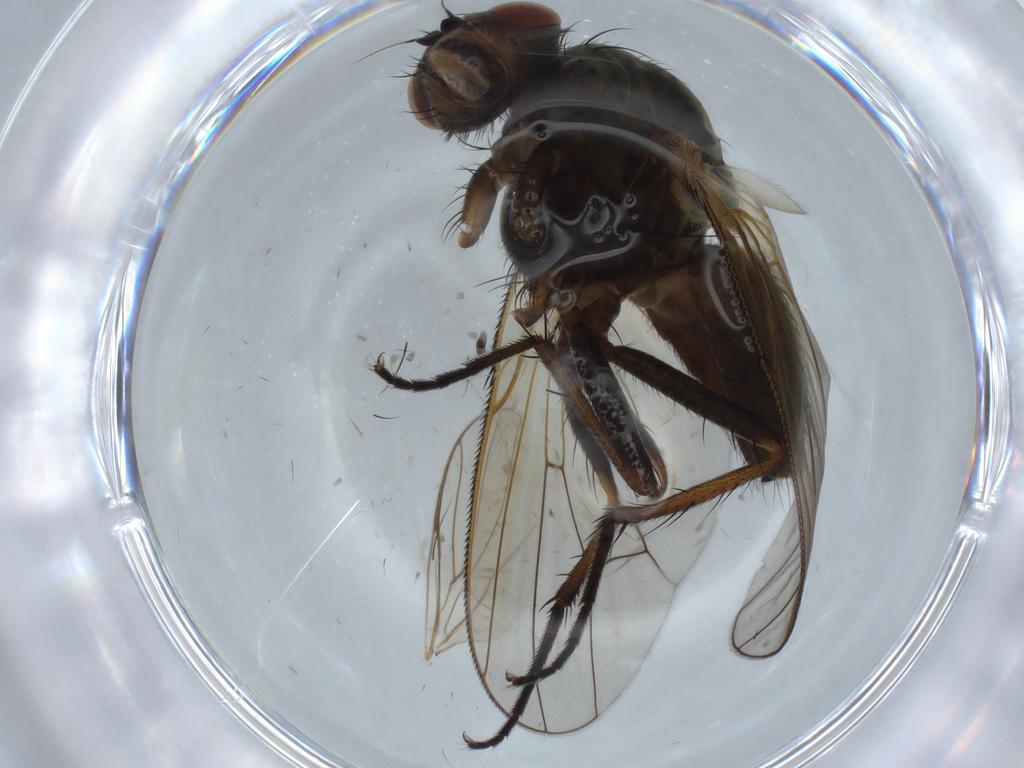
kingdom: Animalia
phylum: Arthropoda
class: Insecta
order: Diptera
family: Anthomyiidae
